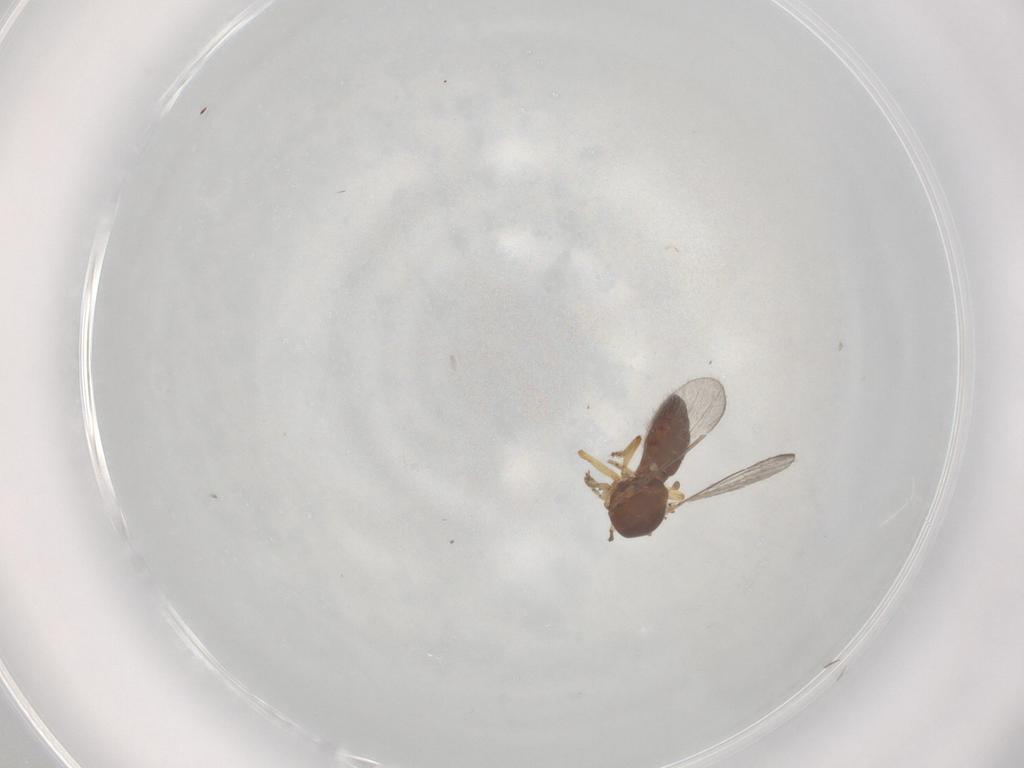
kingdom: Animalia
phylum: Arthropoda
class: Insecta
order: Diptera
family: Ceratopogonidae
